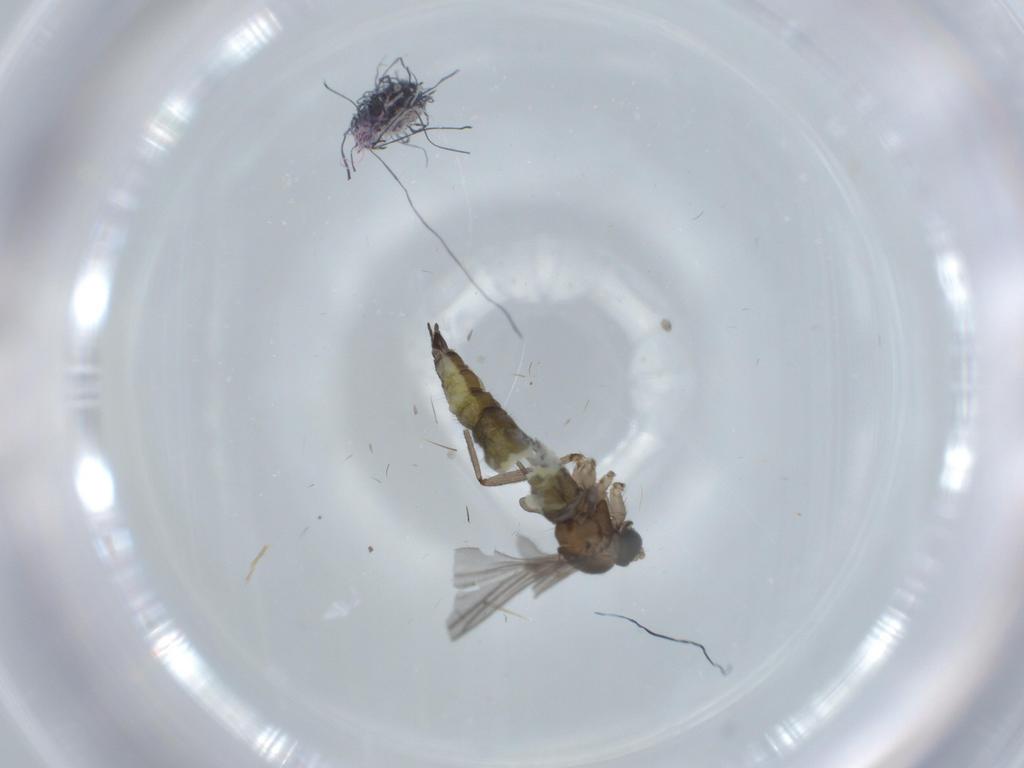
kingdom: Animalia
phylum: Arthropoda
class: Insecta
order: Diptera
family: Sciaridae
